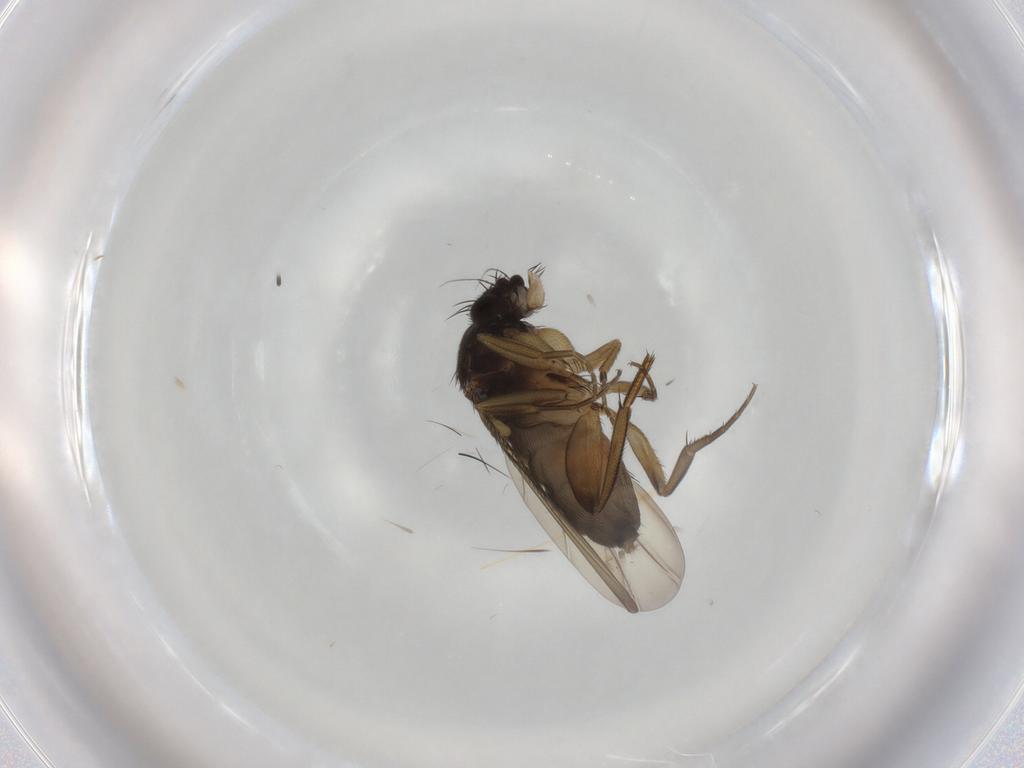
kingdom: Animalia
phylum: Arthropoda
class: Insecta
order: Diptera
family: Phoridae
